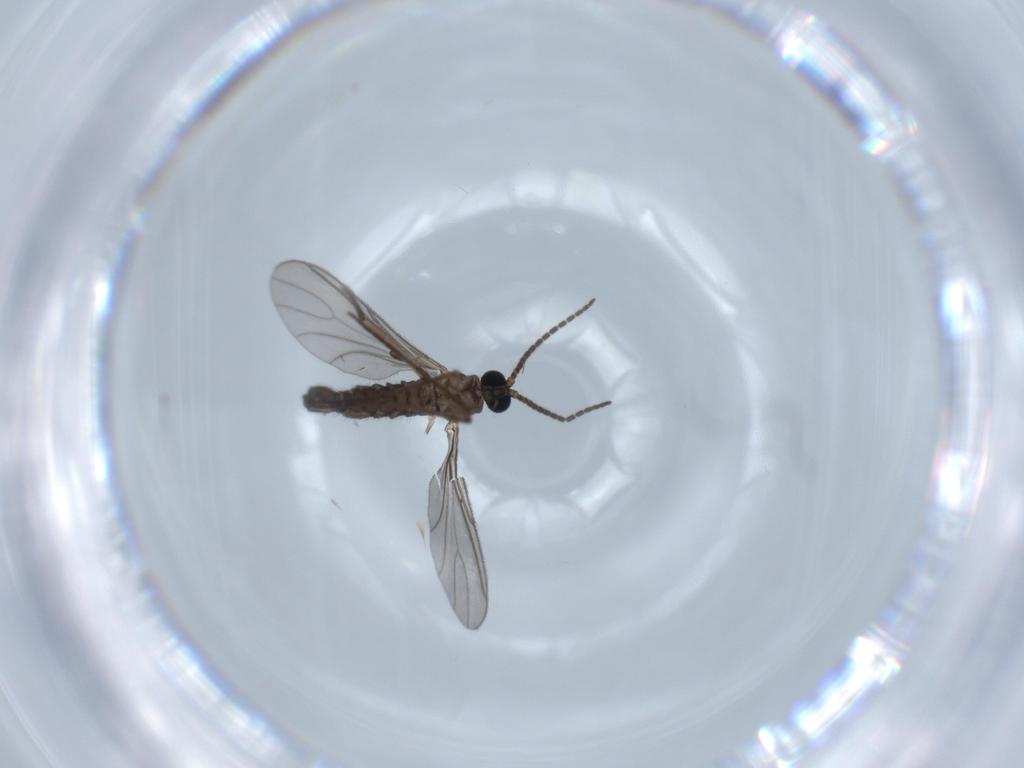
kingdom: Animalia
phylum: Arthropoda
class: Insecta
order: Diptera
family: Sciaridae
